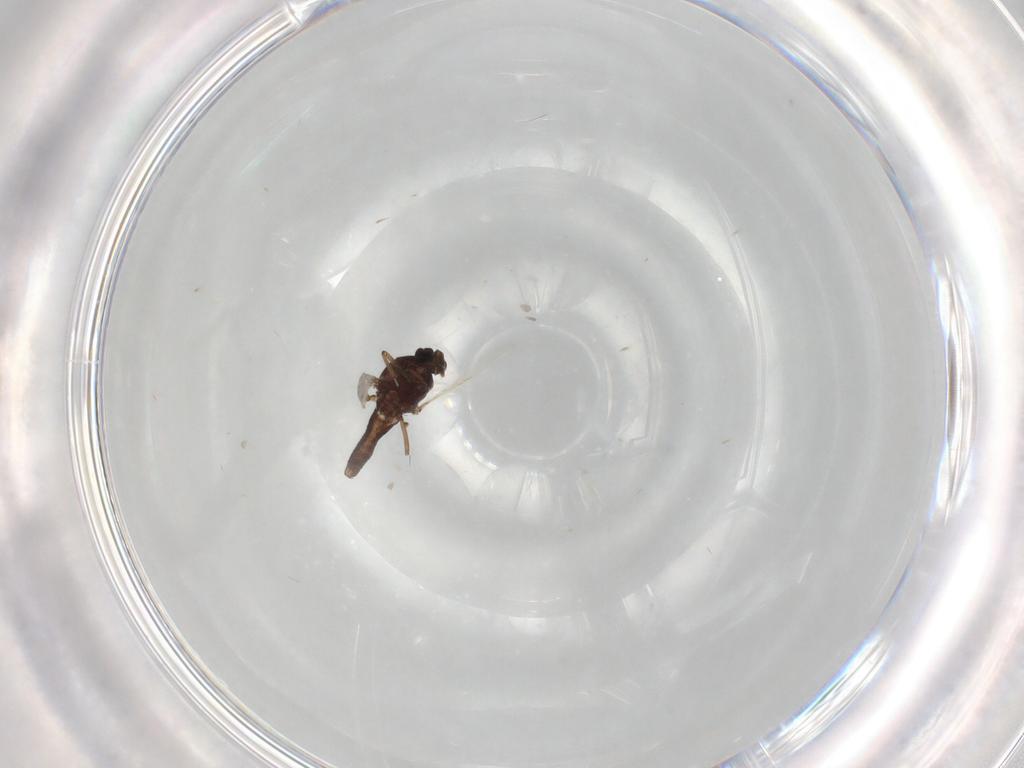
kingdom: Animalia
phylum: Arthropoda
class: Insecta
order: Diptera
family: Ceratopogonidae
